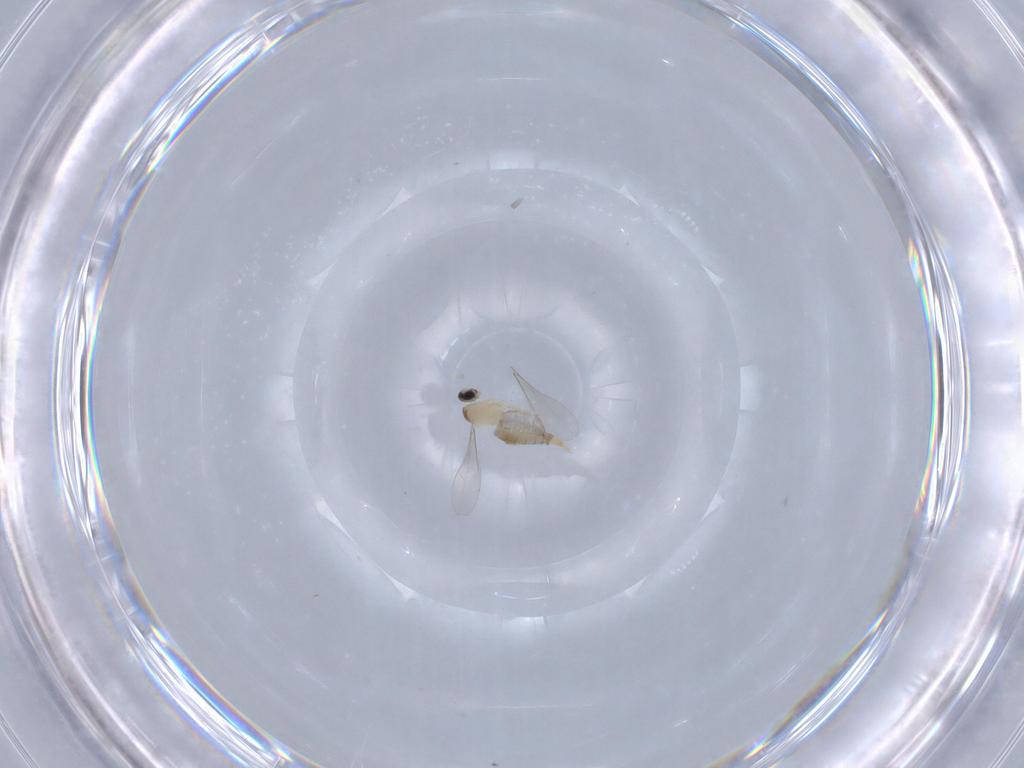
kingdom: Animalia
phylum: Arthropoda
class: Insecta
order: Diptera
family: Cecidomyiidae
